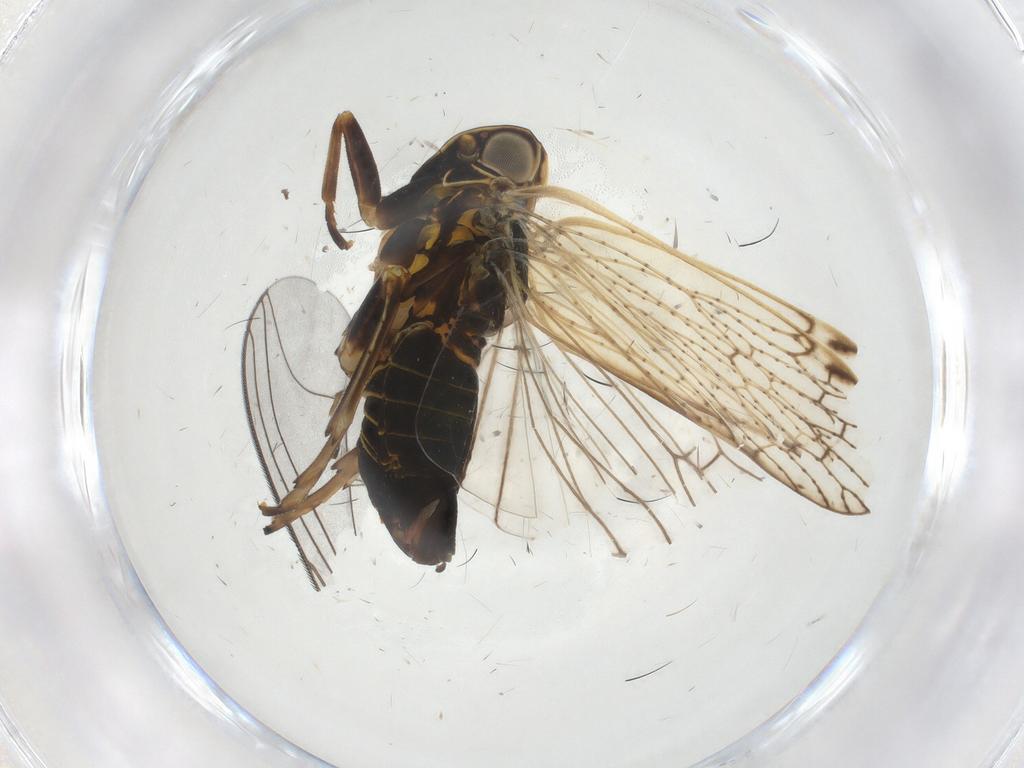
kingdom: Animalia
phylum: Arthropoda
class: Insecta
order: Hemiptera
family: Cixiidae
